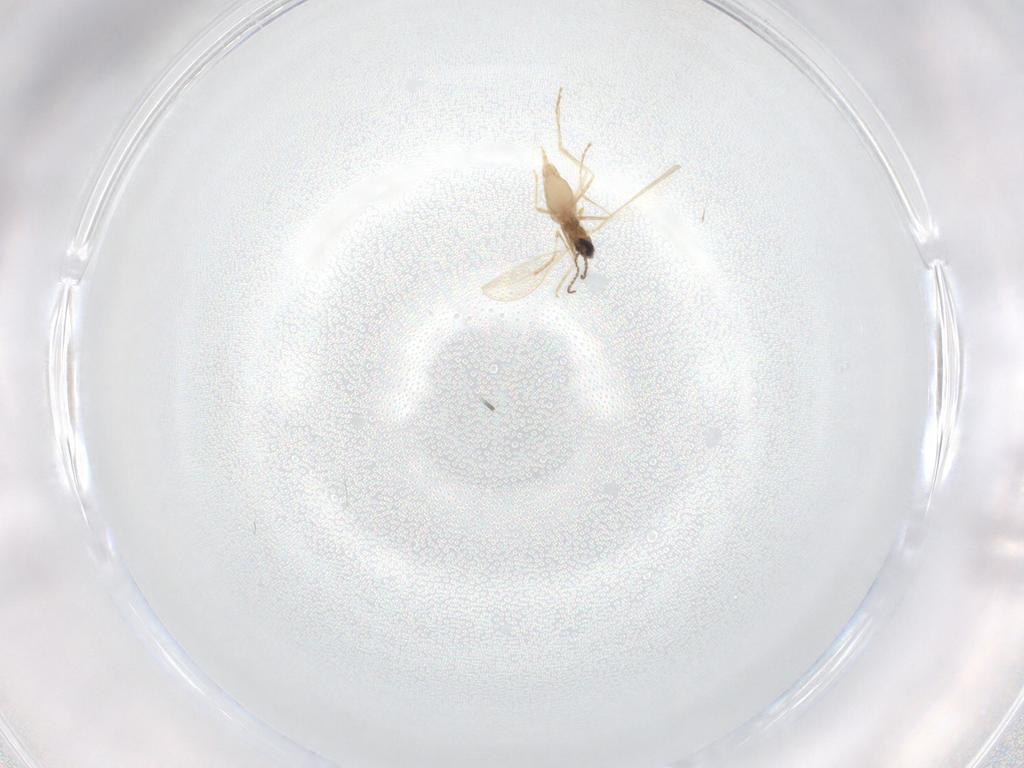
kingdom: Animalia
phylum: Arthropoda
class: Insecta
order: Diptera
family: Cecidomyiidae
